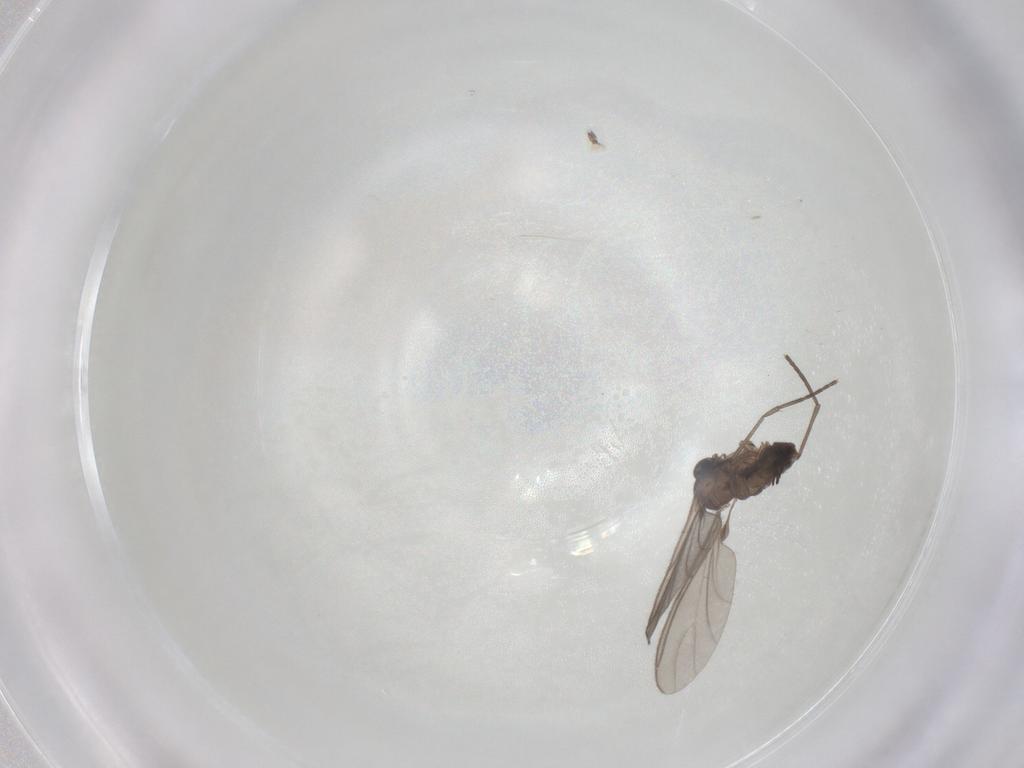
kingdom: Animalia
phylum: Arthropoda
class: Insecta
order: Diptera
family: Sciaridae
